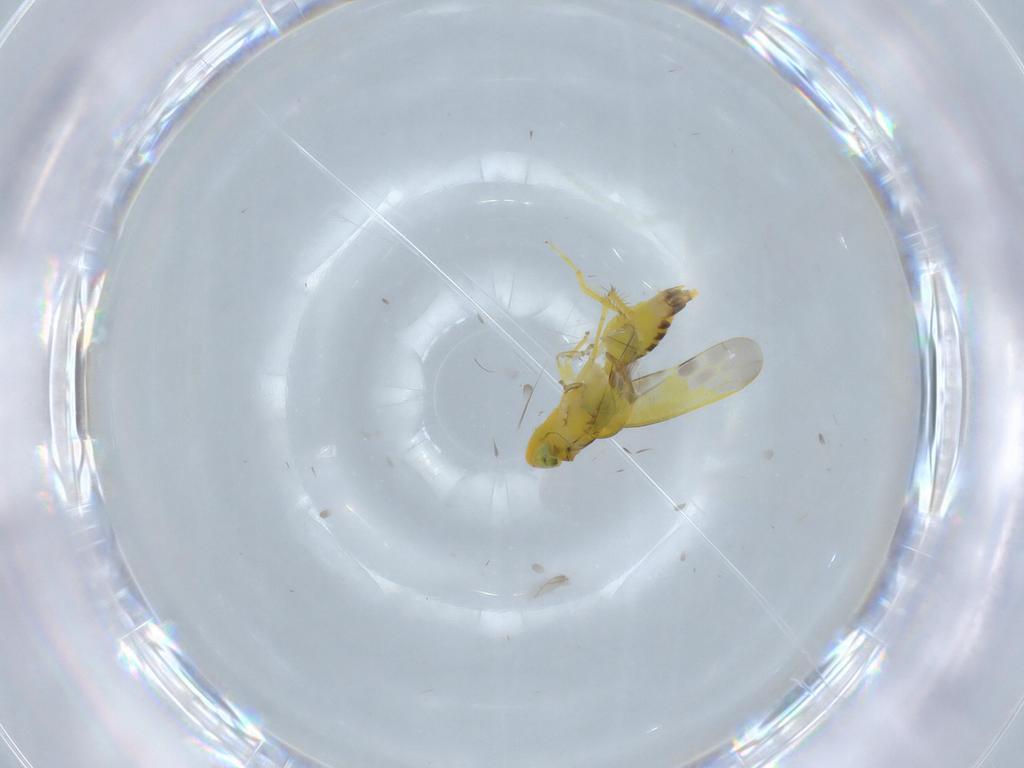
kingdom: Animalia
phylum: Arthropoda
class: Insecta
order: Hemiptera
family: Cicadellidae
